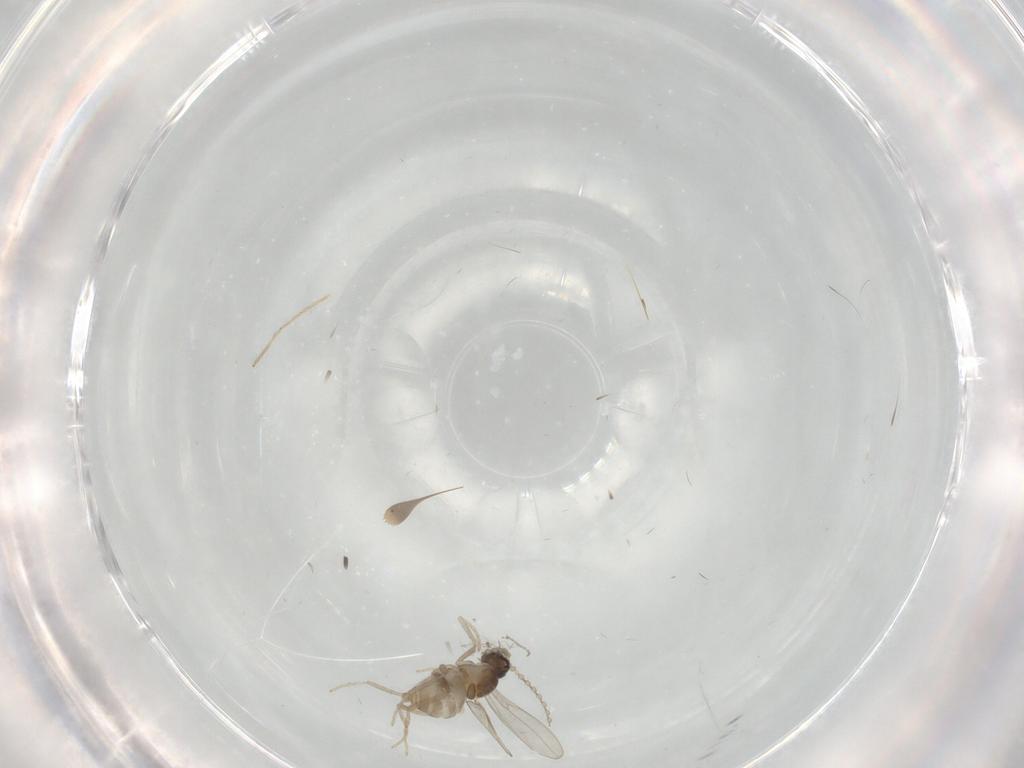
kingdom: Animalia
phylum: Arthropoda
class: Insecta
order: Diptera
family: Cecidomyiidae
